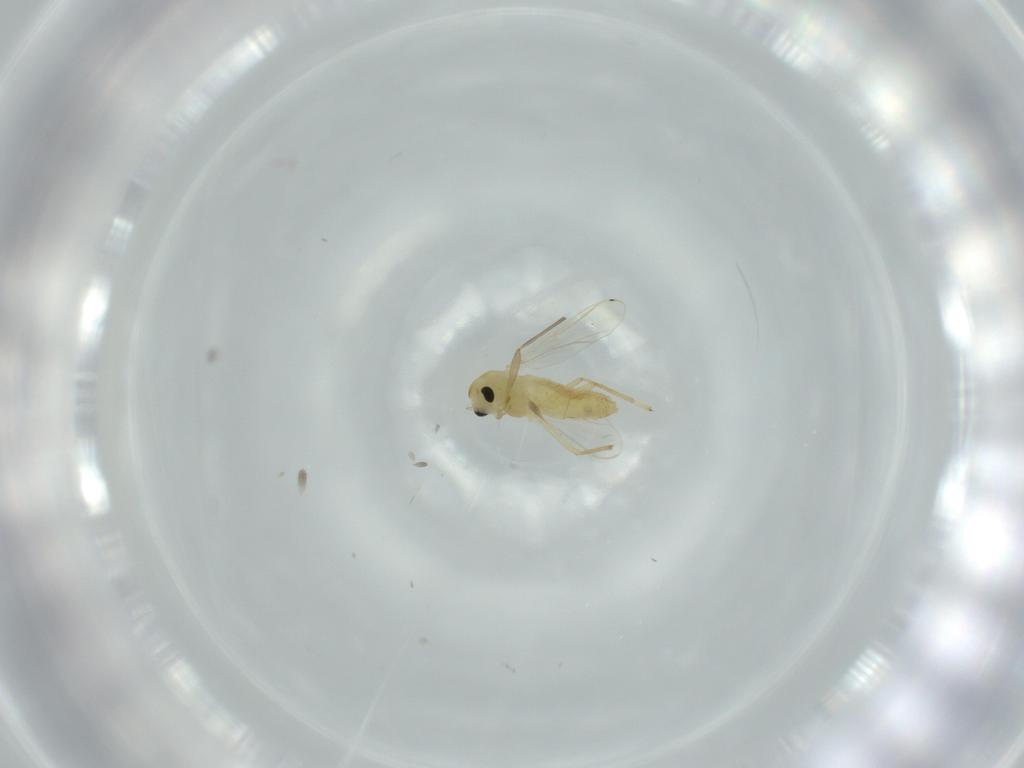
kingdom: Animalia
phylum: Arthropoda
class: Insecta
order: Diptera
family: Chironomidae
